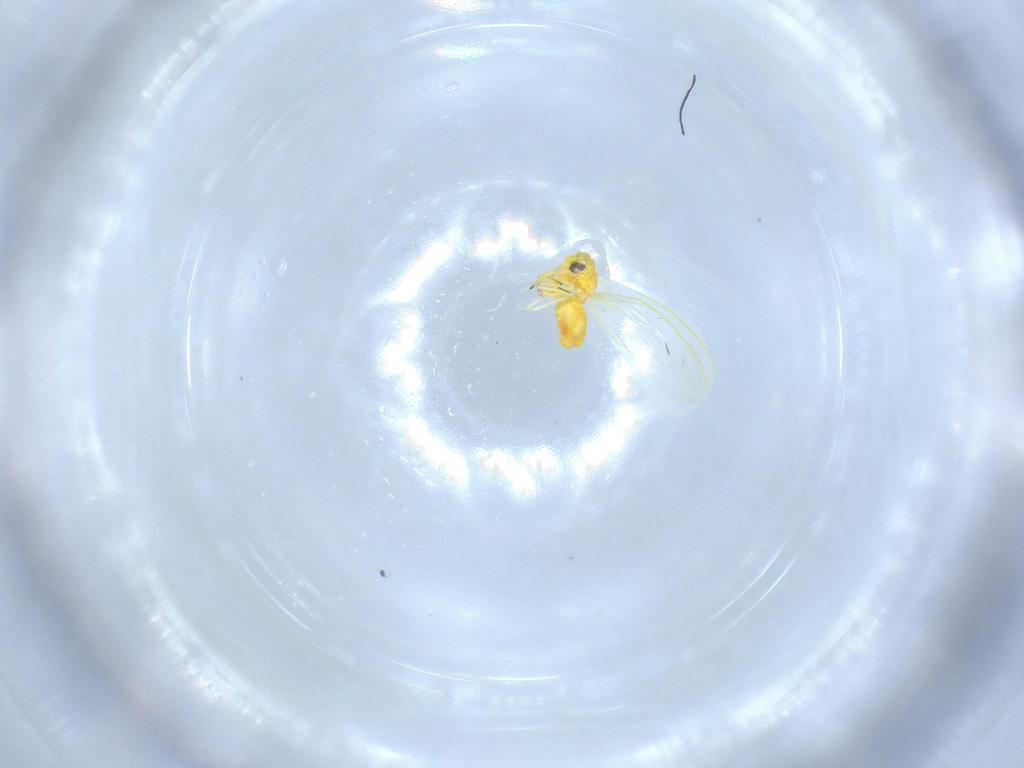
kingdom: Animalia
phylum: Arthropoda
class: Insecta
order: Hemiptera
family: Aleyrodidae
